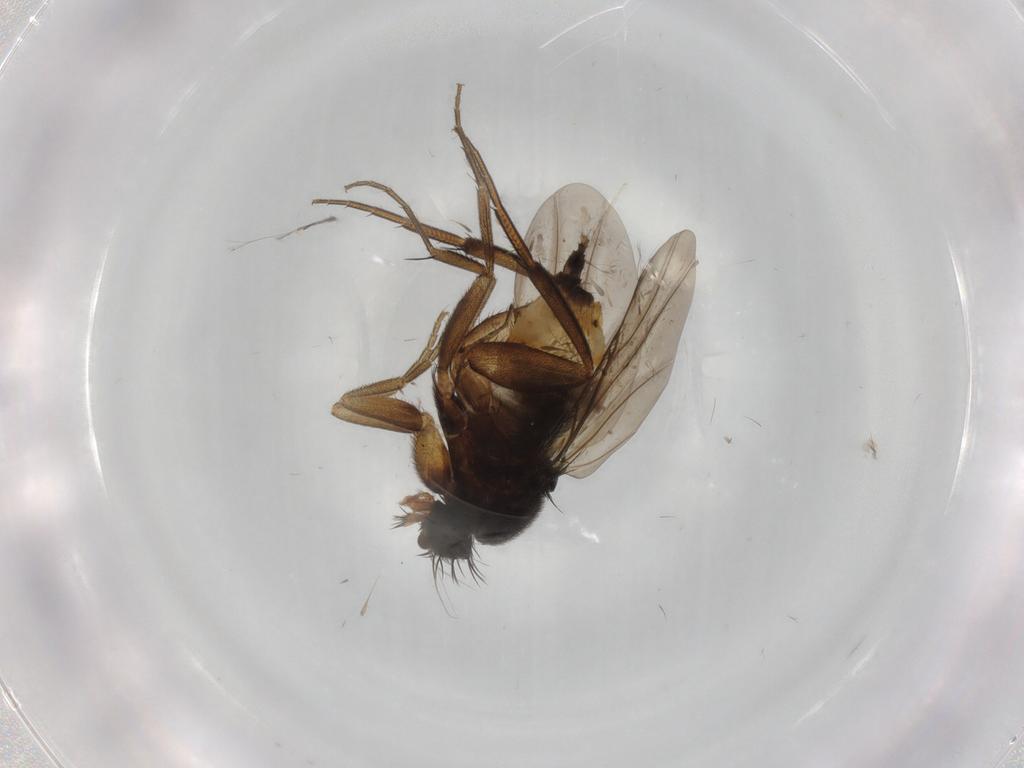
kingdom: Animalia
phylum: Arthropoda
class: Insecta
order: Diptera
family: Phoridae
